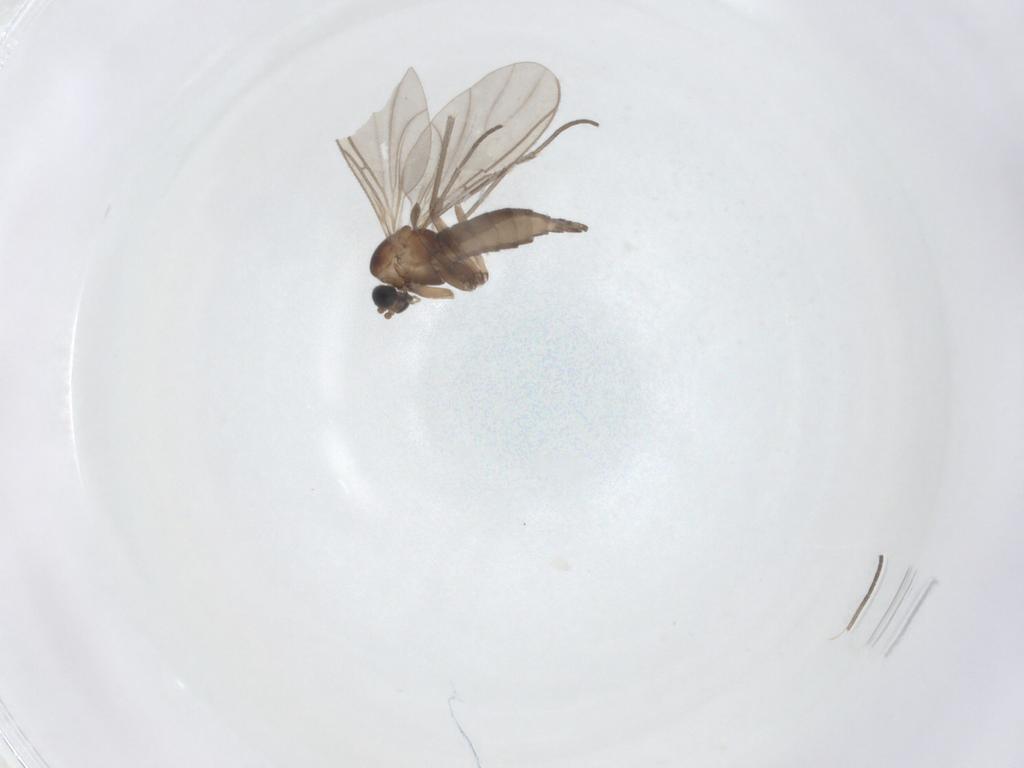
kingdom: Animalia
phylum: Arthropoda
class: Insecta
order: Diptera
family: Sciaridae
